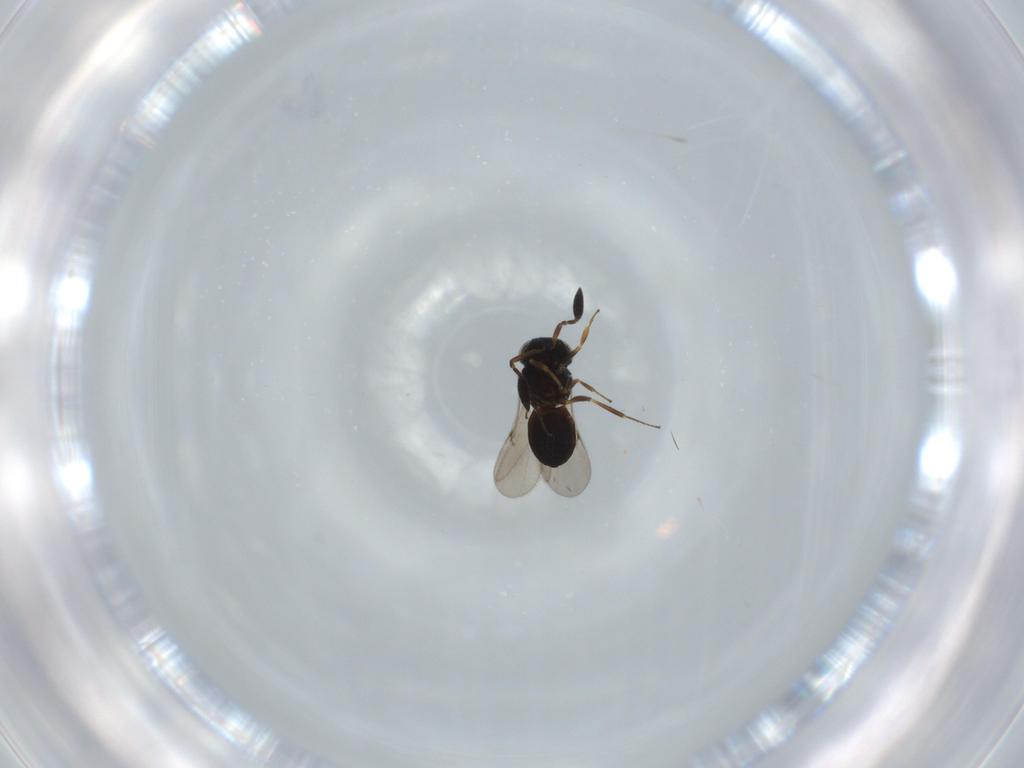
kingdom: Animalia
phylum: Arthropoda
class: Insecta
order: Hymenoptera
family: Scelionidae
